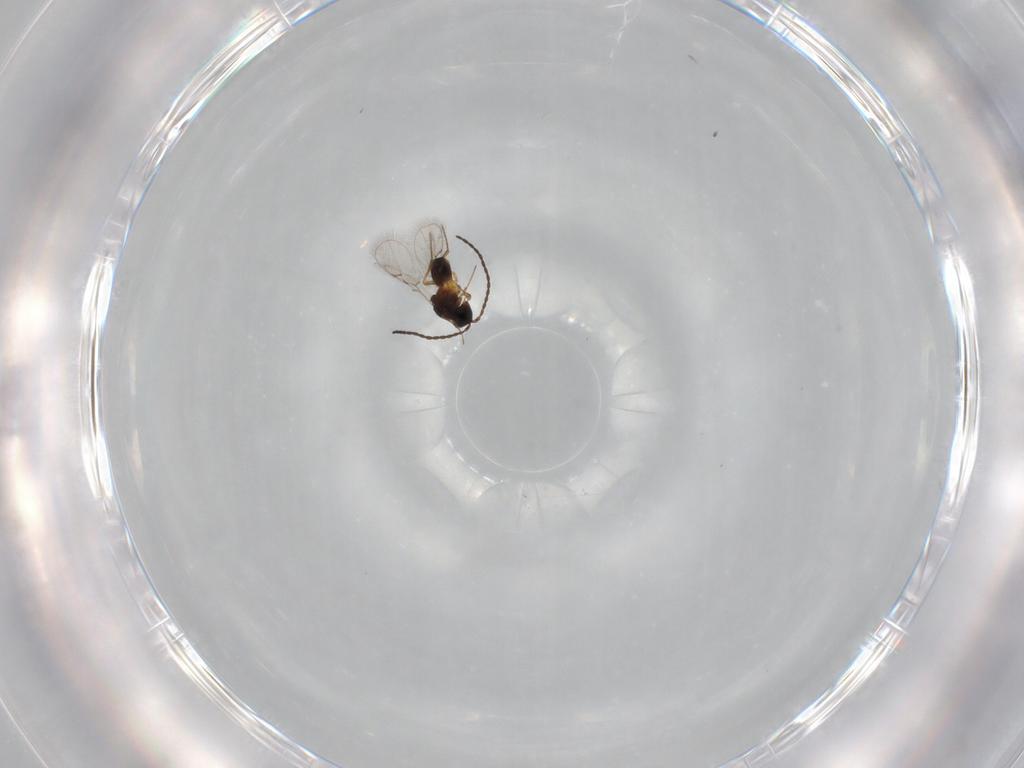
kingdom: Animalia
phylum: Arthropoda
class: Insecta
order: Hymenoptera
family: Figitidae
